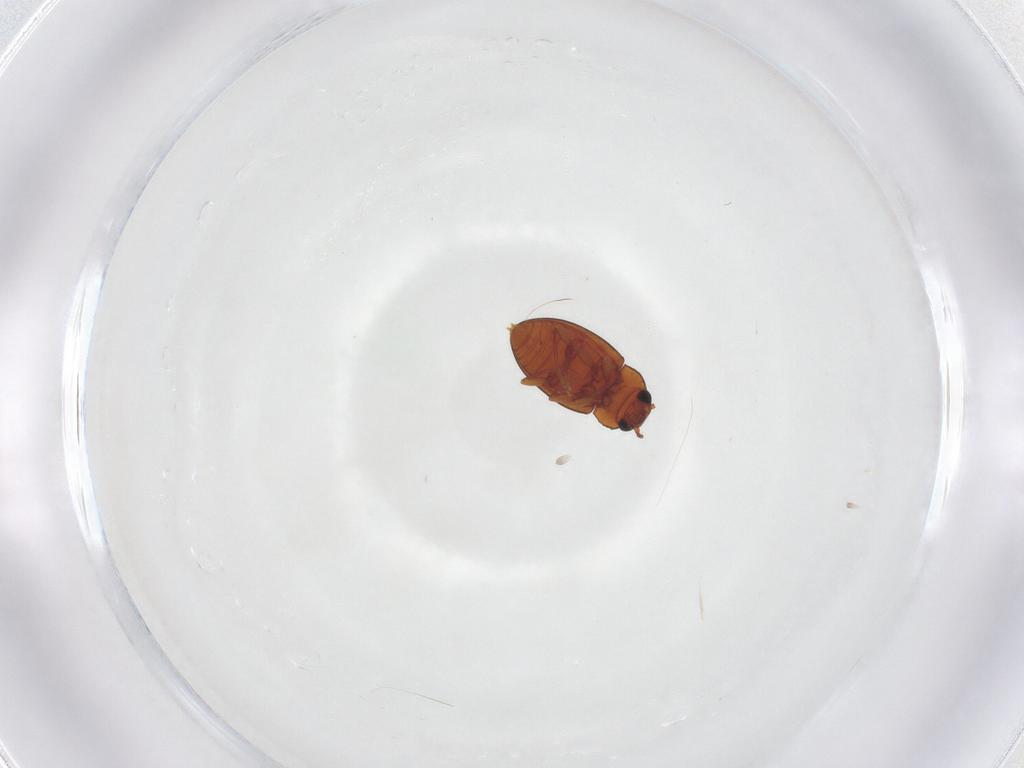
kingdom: Animalia
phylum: Arthropoda
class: Insecta
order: Coleoptera
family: Erotylidae
